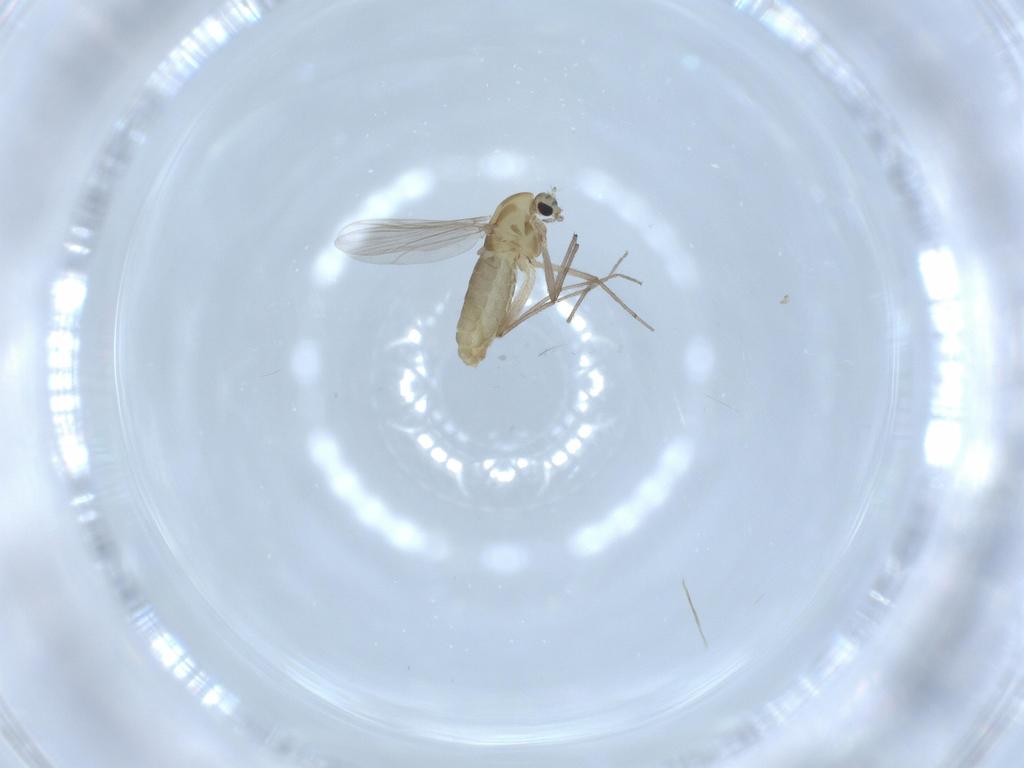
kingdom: Animalia
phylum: Arthropoda
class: Insecta
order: Diptera
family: Chironomidae
